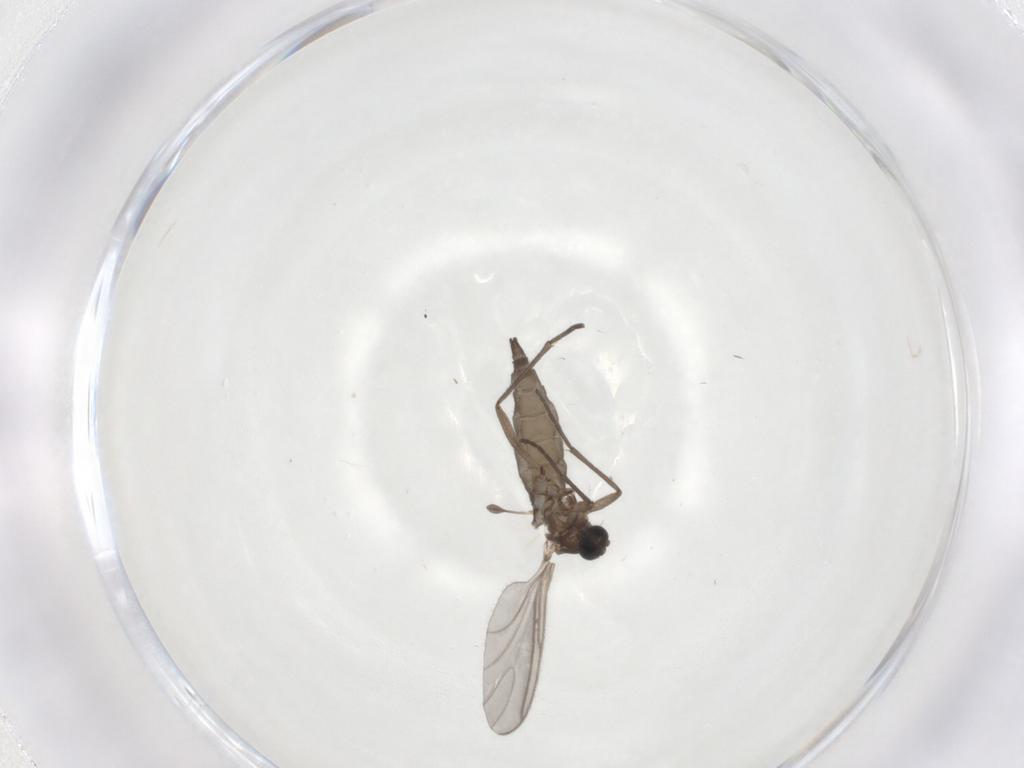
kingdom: Animalia
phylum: Arthropoda
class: Insecta
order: Diptera
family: Sciaridae
